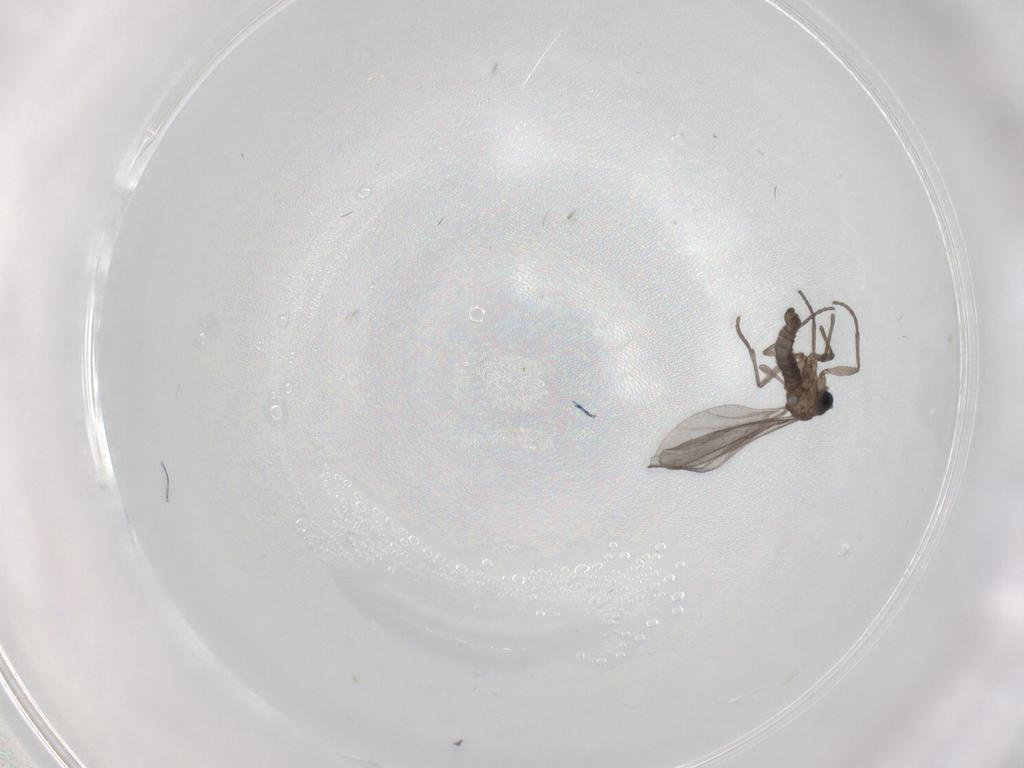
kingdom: Animalia
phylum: Arthropoda
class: Insecta
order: Diptera
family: Sciaridae
